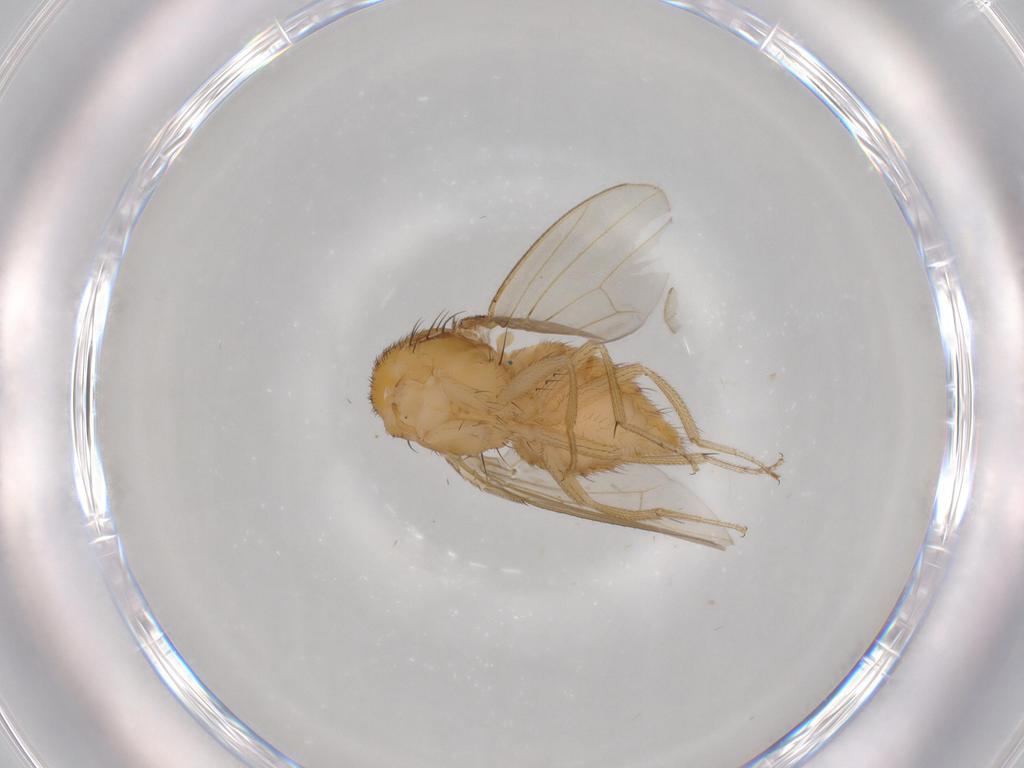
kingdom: Animalia
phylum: Arthropoda
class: Insecta
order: Diptera
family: Drosophilidae
